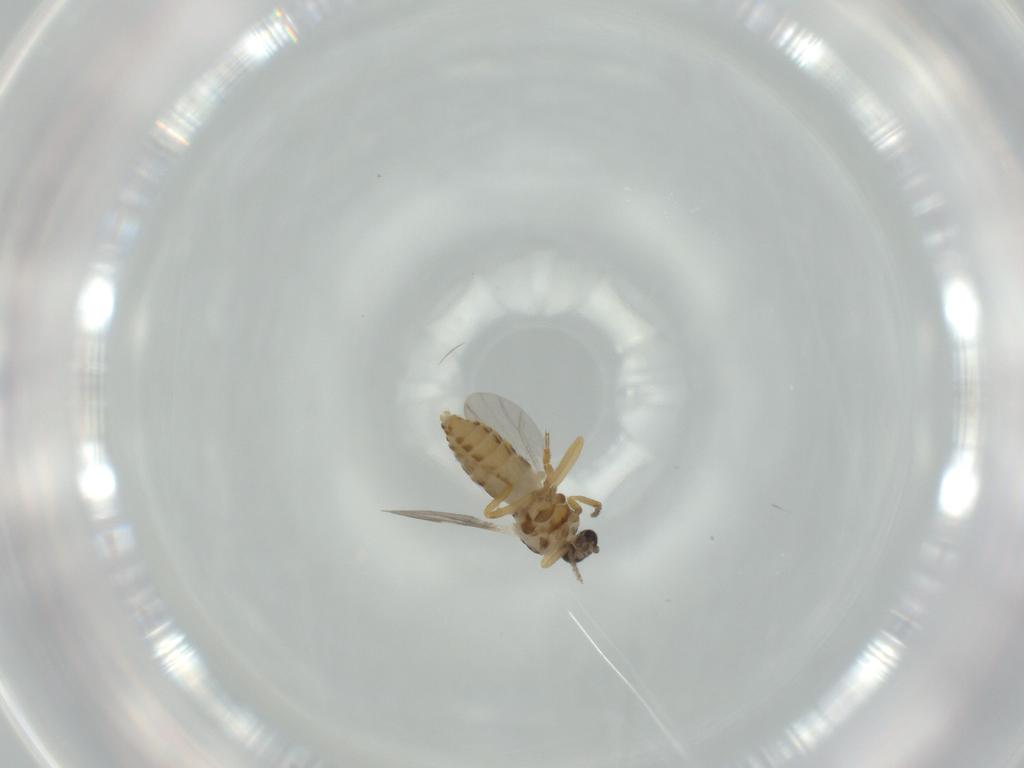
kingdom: Animalia
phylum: Arthropoda
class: Insecta
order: Diptera
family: Ceratopogonidae
